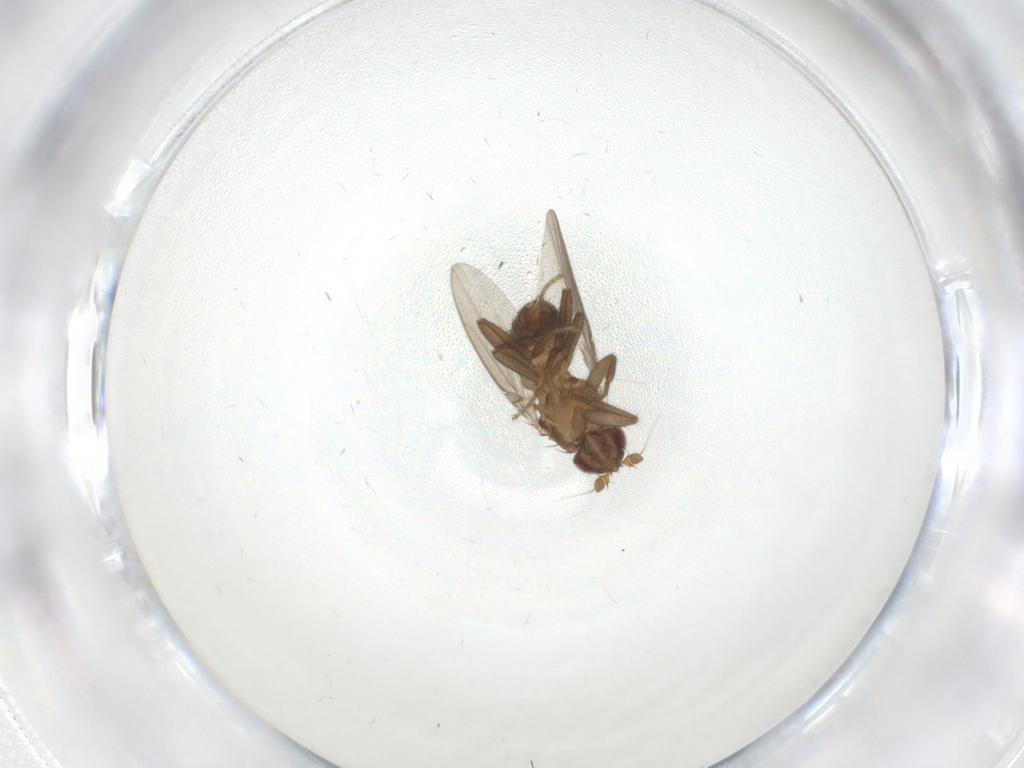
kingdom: Animalia
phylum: Arthropoda
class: Insecta
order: Diptera
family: Sphaeroceridae
